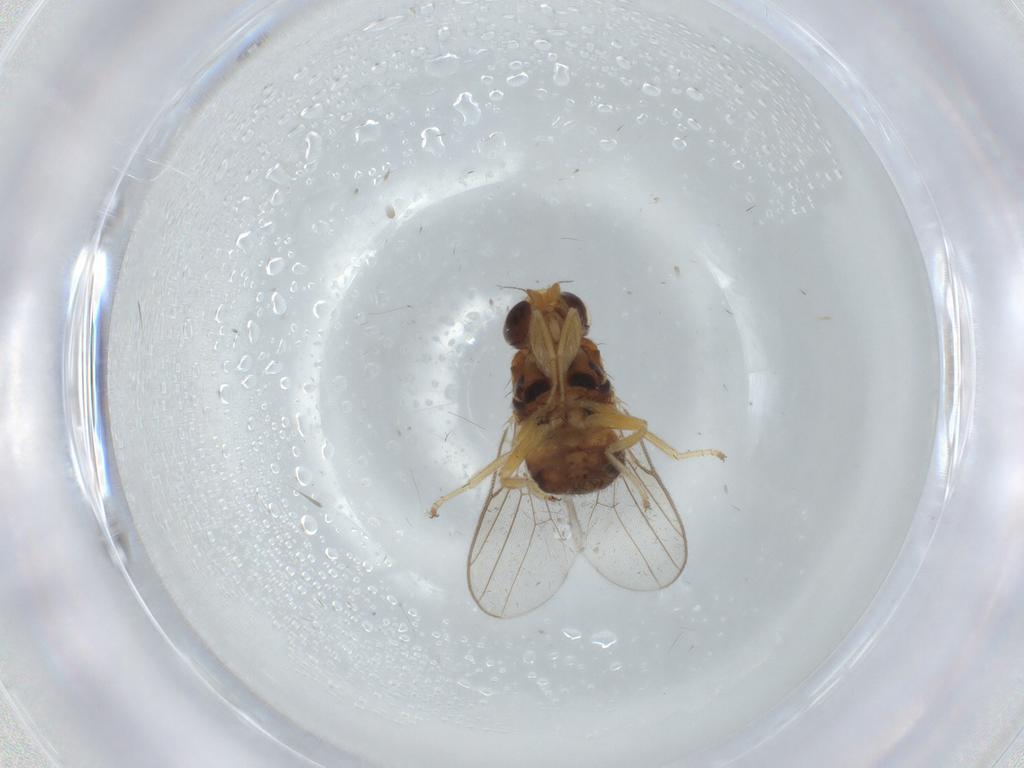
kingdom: Animalia
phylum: Arthropoda
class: Insecta
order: Diptera
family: Chloropidae
